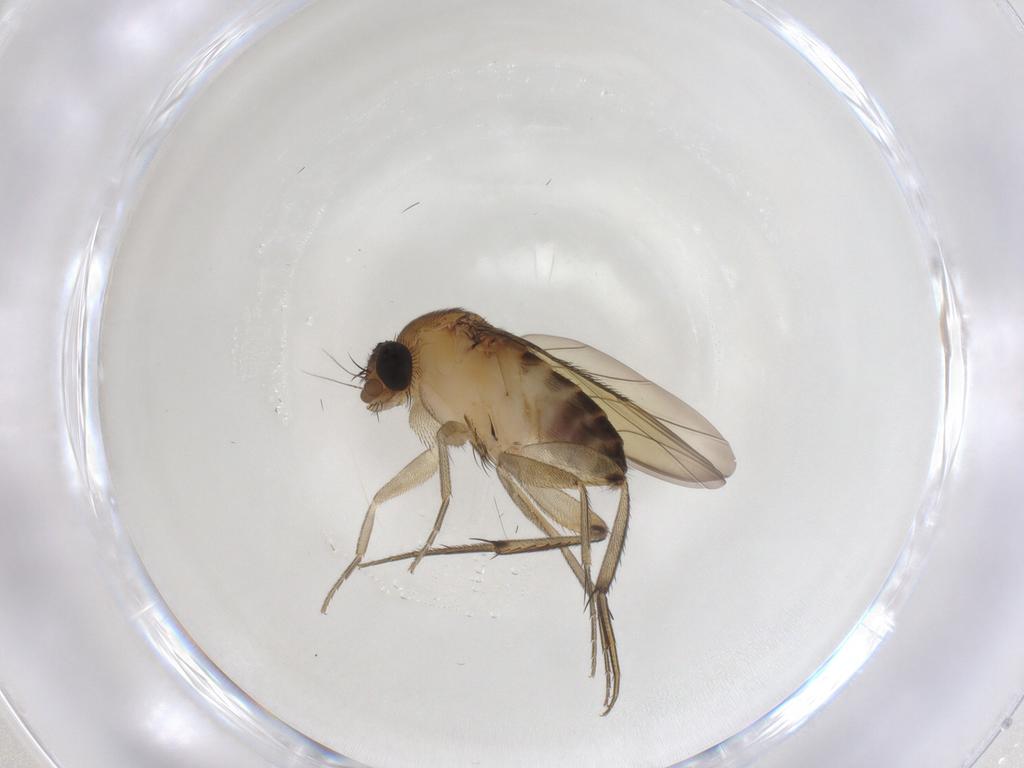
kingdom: Animalia
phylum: Arthropoda
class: Insecta
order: Diptera
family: Phoridae
